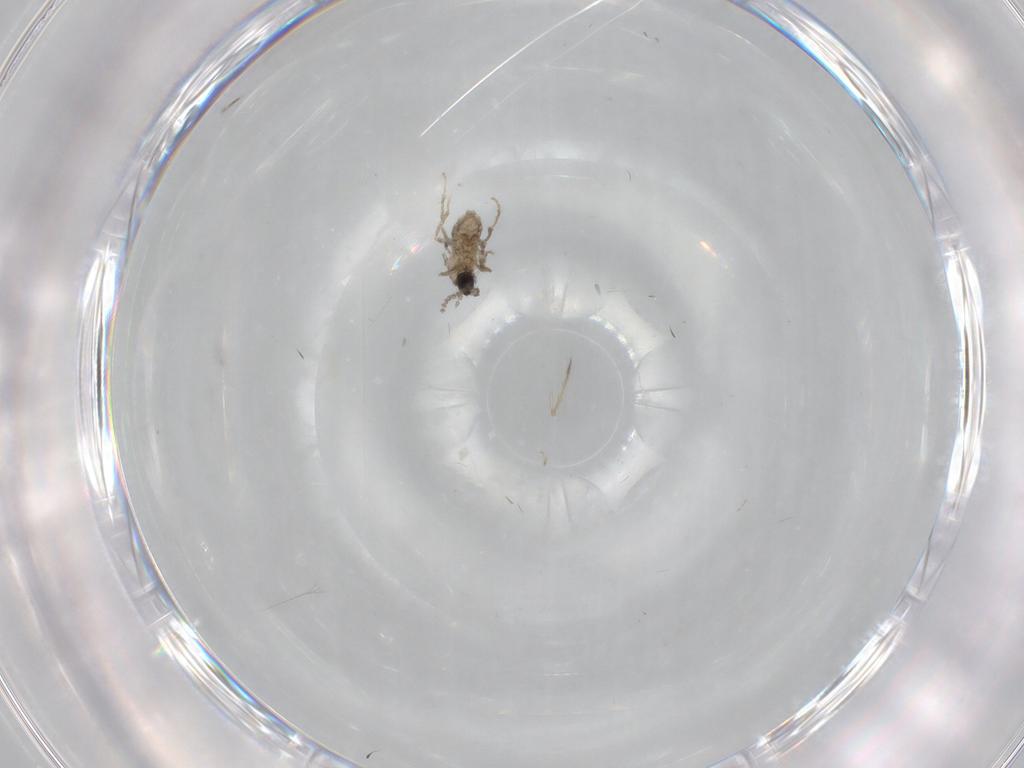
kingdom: Animalia
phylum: Arthropoda
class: Insecta
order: Diptera
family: Cecidomyiidae
